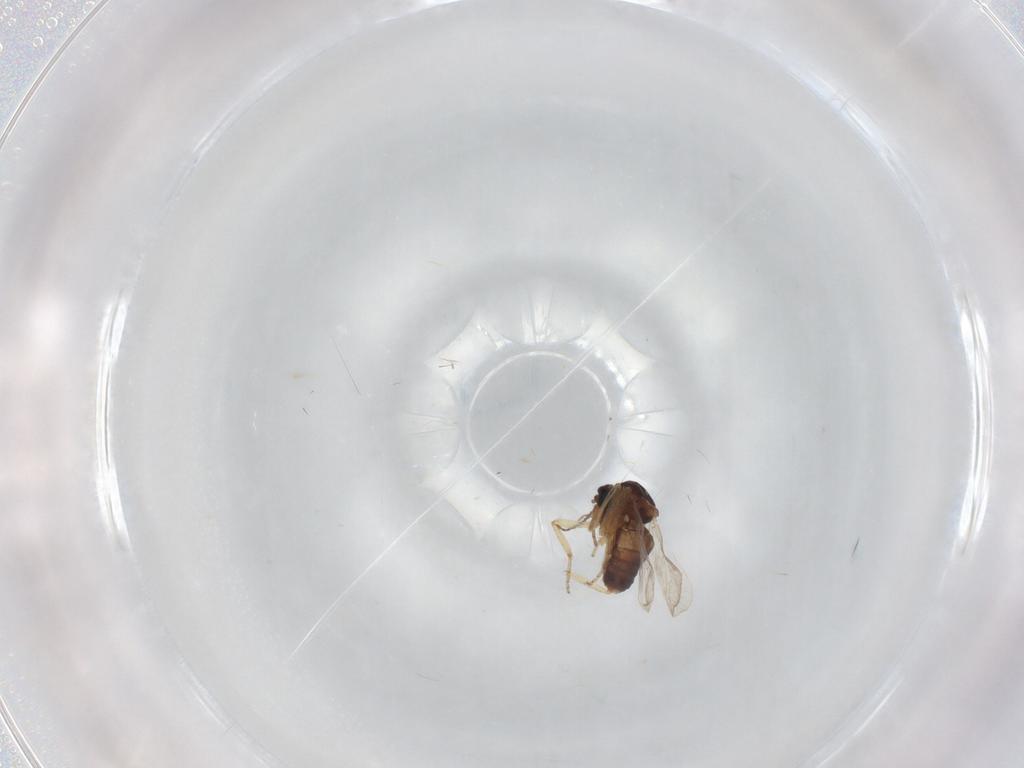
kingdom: Animalia
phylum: Arthropoda
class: Insecta
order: Diptera
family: Ceratopogonidae
